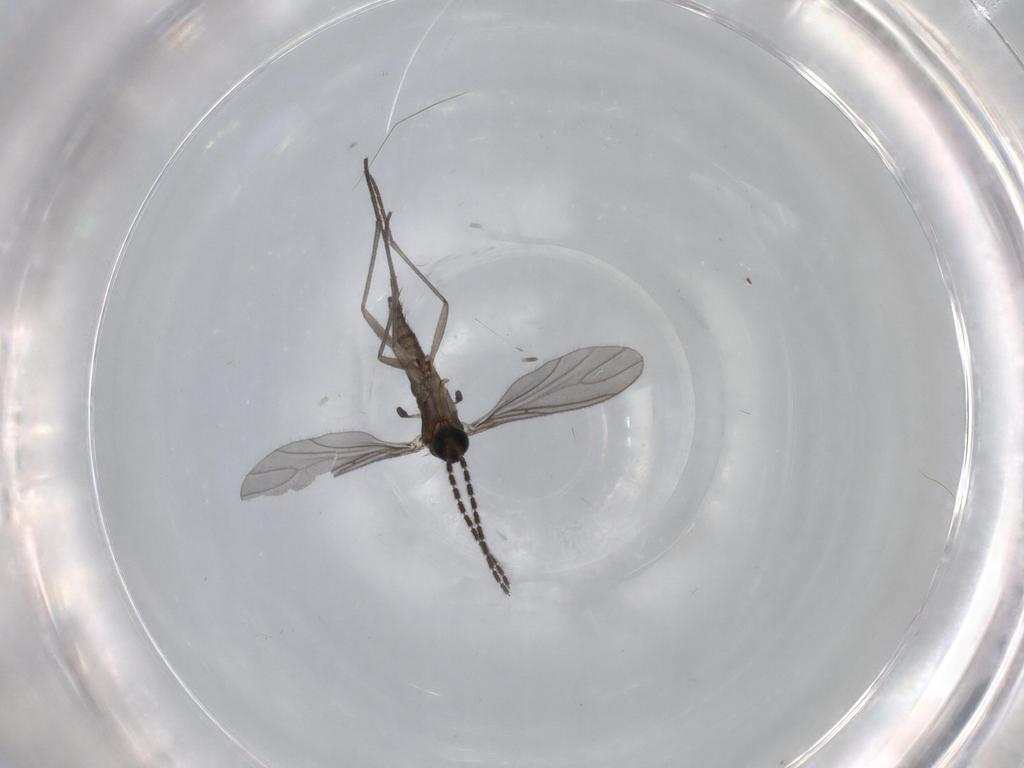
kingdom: Animalia
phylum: Arthropoda
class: Insecta
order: Diptera
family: Sciaridae
